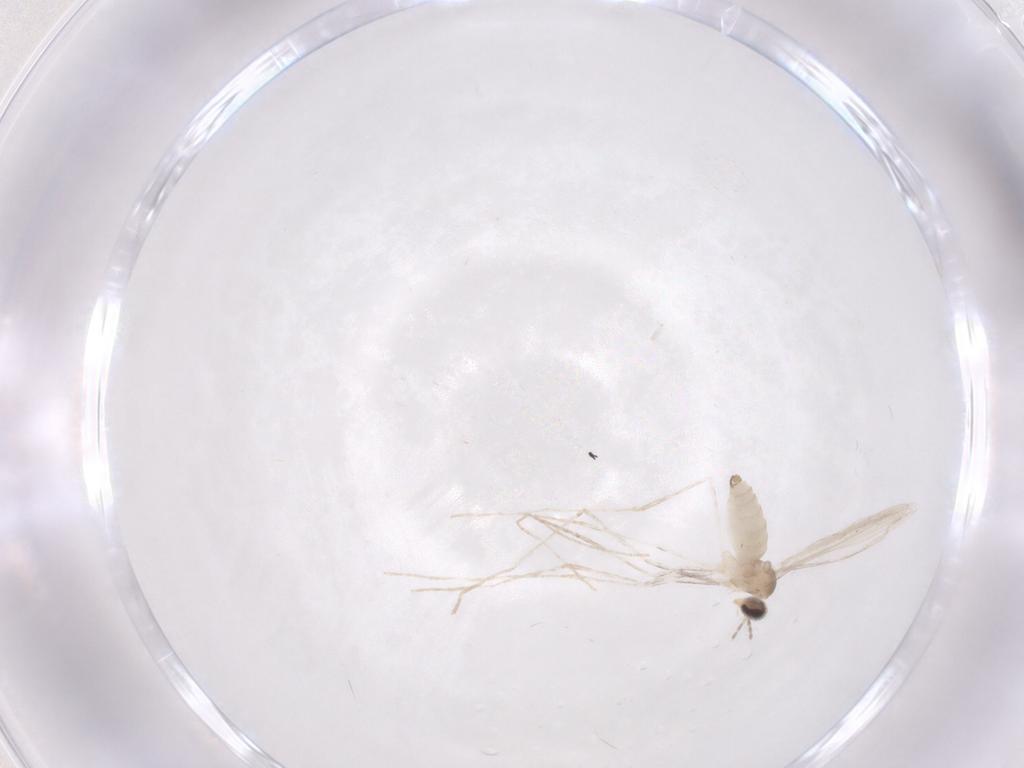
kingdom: Animalia
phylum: Arthropoda
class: Insecta
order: Diptera
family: Cecidomyiidae
